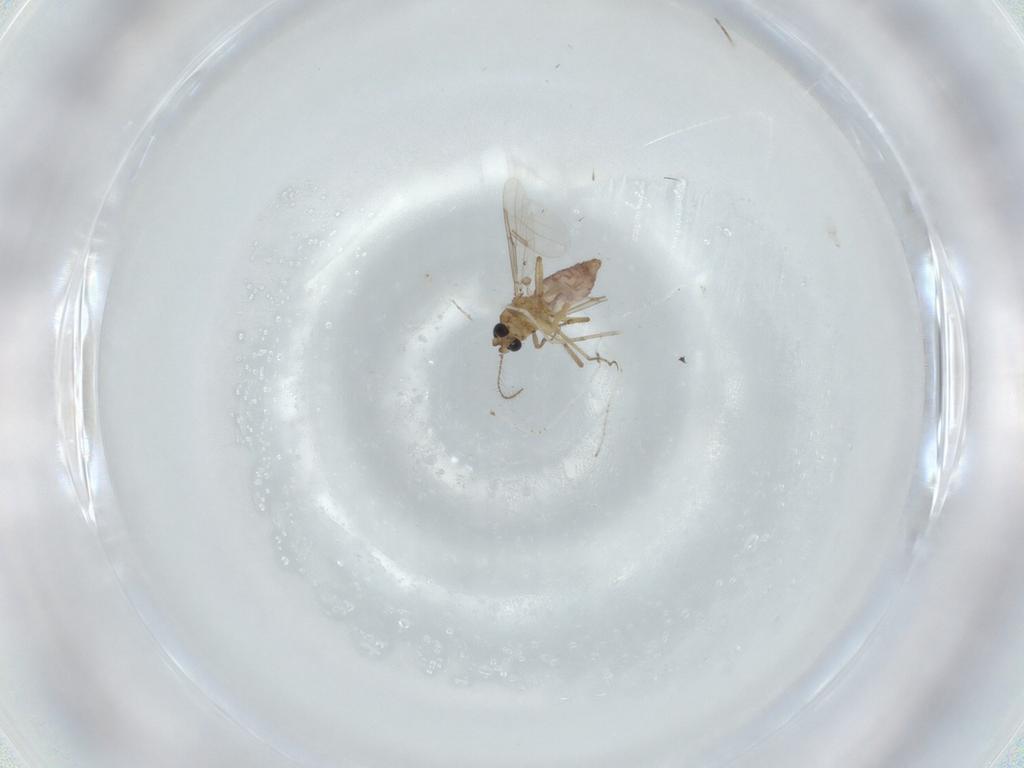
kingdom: Animalia
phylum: Arthropoda
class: Insecta
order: Diptera
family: Chironomidae
